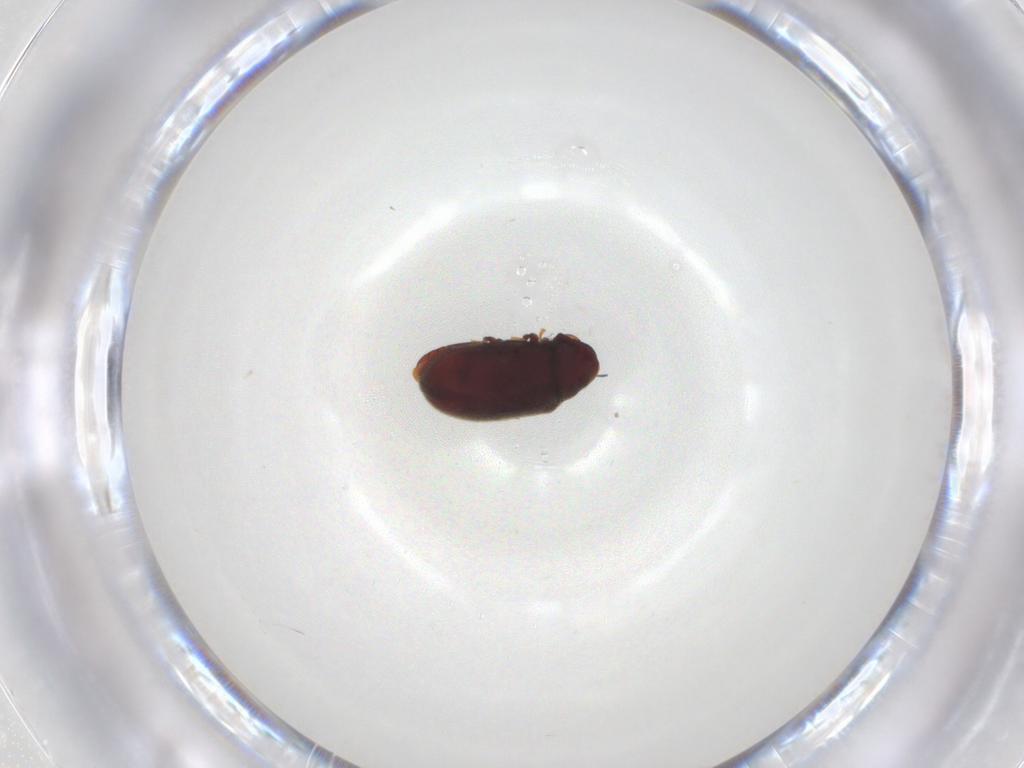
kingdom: Animalia
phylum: Arthropoda
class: Insecta
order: Coleoptera
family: Ptinidae
